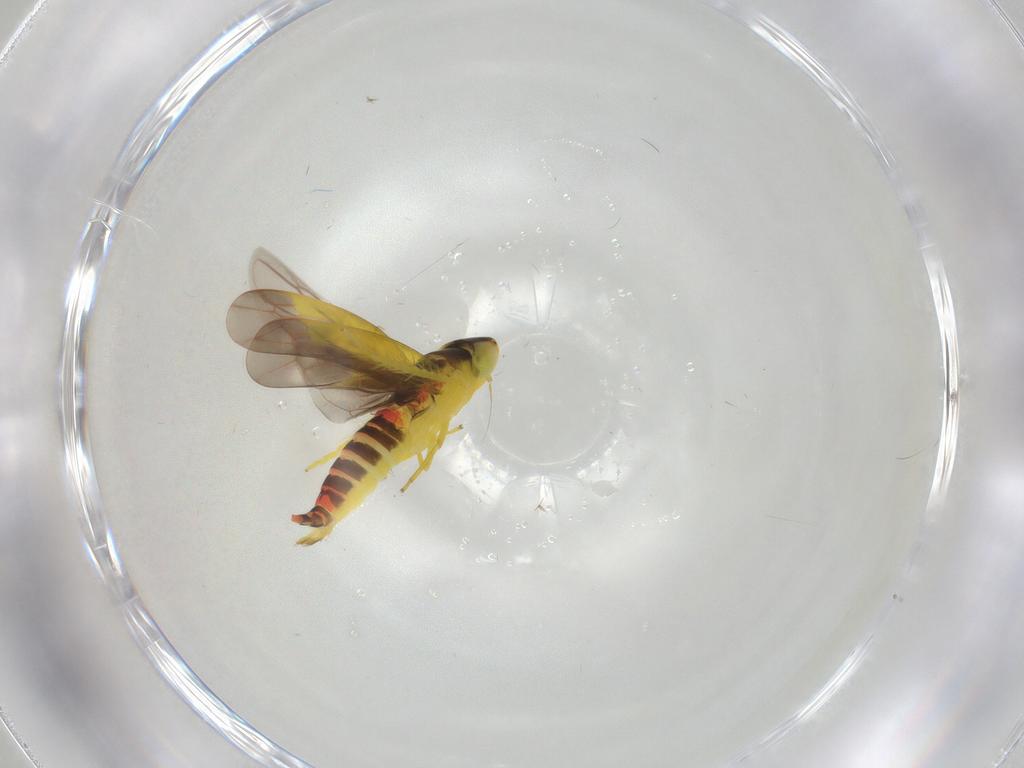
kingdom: Animalia
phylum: Arthropoda
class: Insecta
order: Hemiptera
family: Cicadellidae
